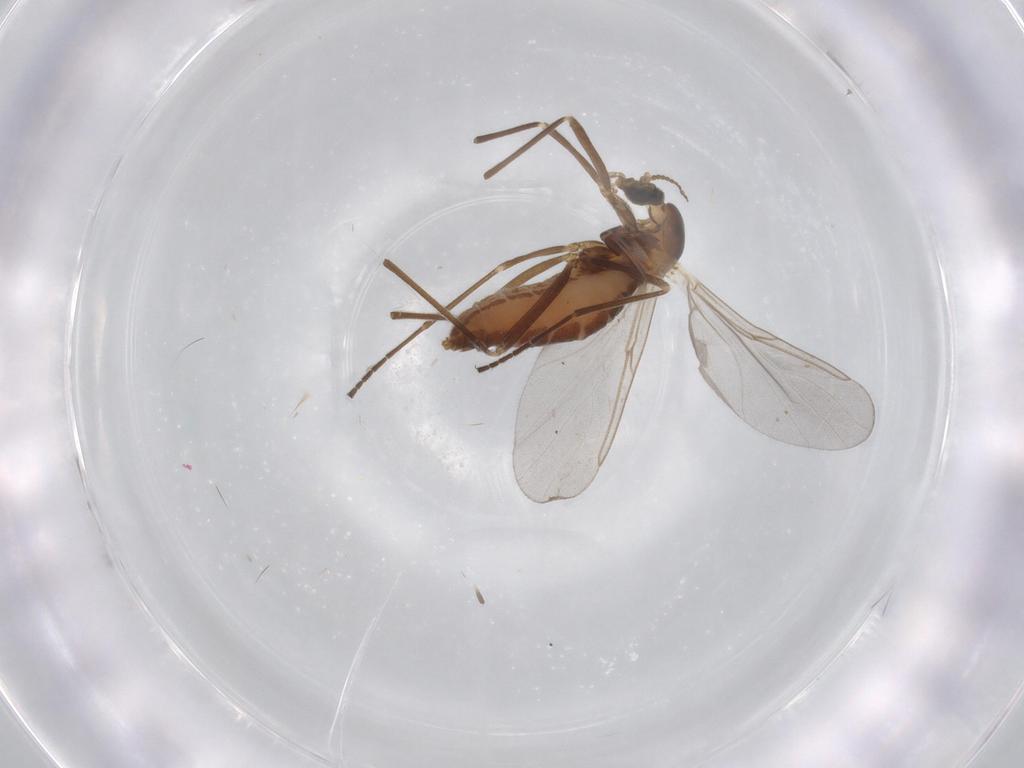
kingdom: Animalia
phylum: Arthropoda
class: Insecta
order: Diptera
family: Cecidomyiidae
